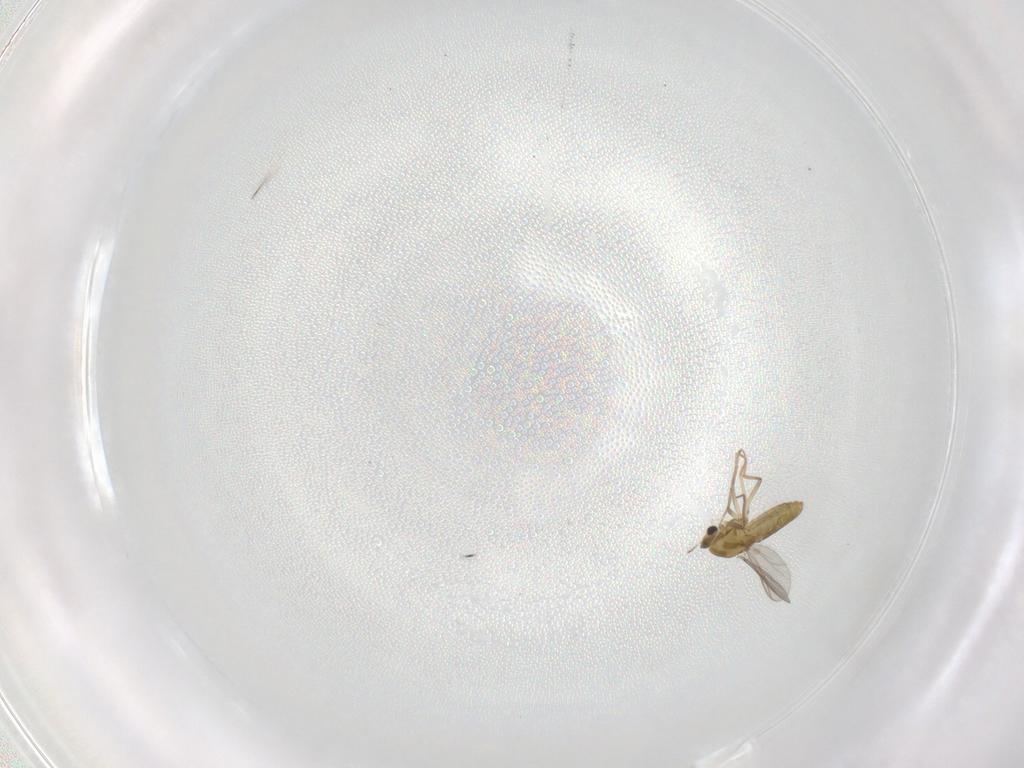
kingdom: Animalia
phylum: Arthropoda
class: Insecta
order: Diptera
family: Chironomidae
